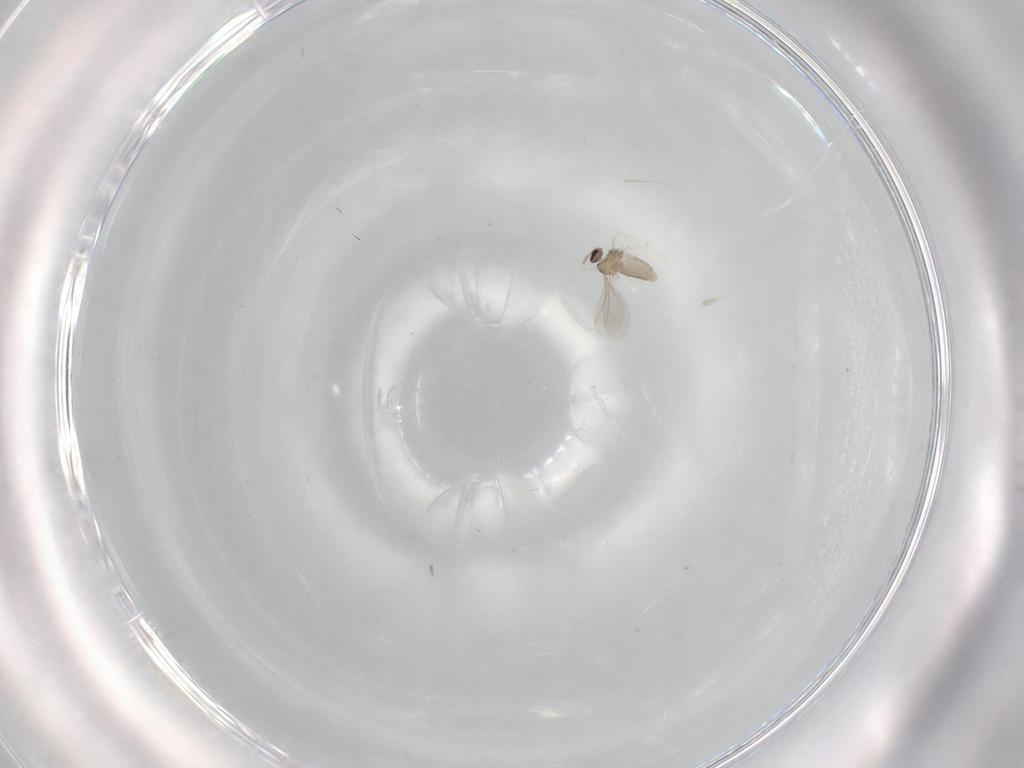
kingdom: Animalia
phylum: Arthropoda
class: Insecta
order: Diptera
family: Cecidomyiidae
